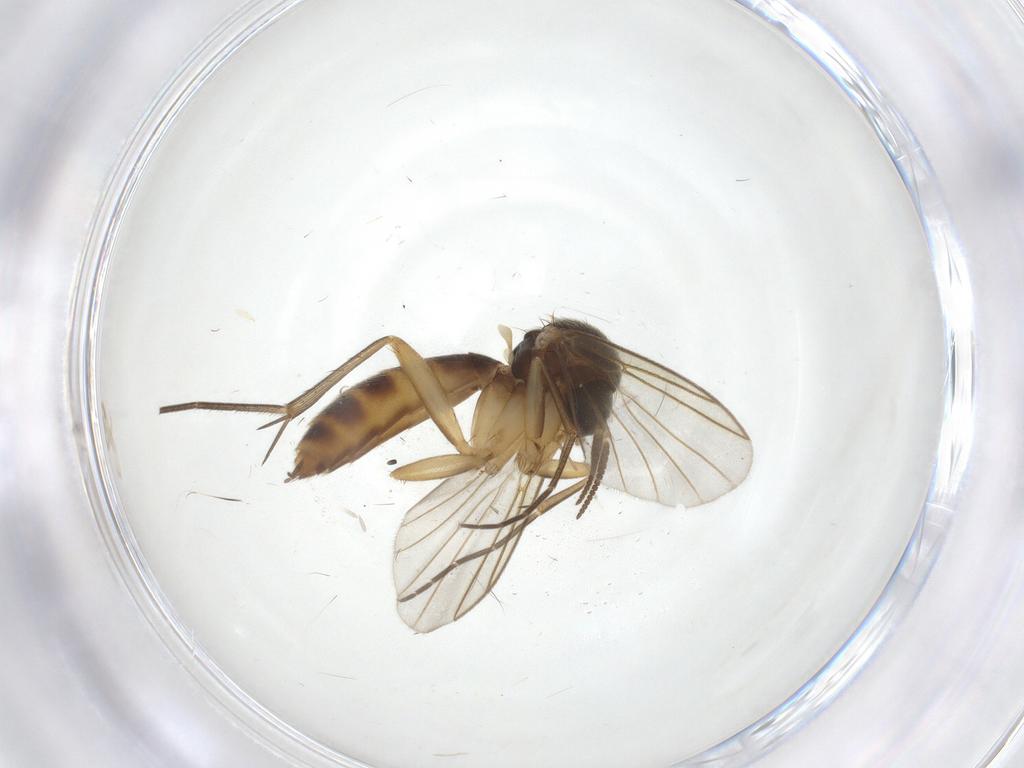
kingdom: Animalia
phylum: Arthropoda
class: Insecta
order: Diptera
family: Chironomidae
